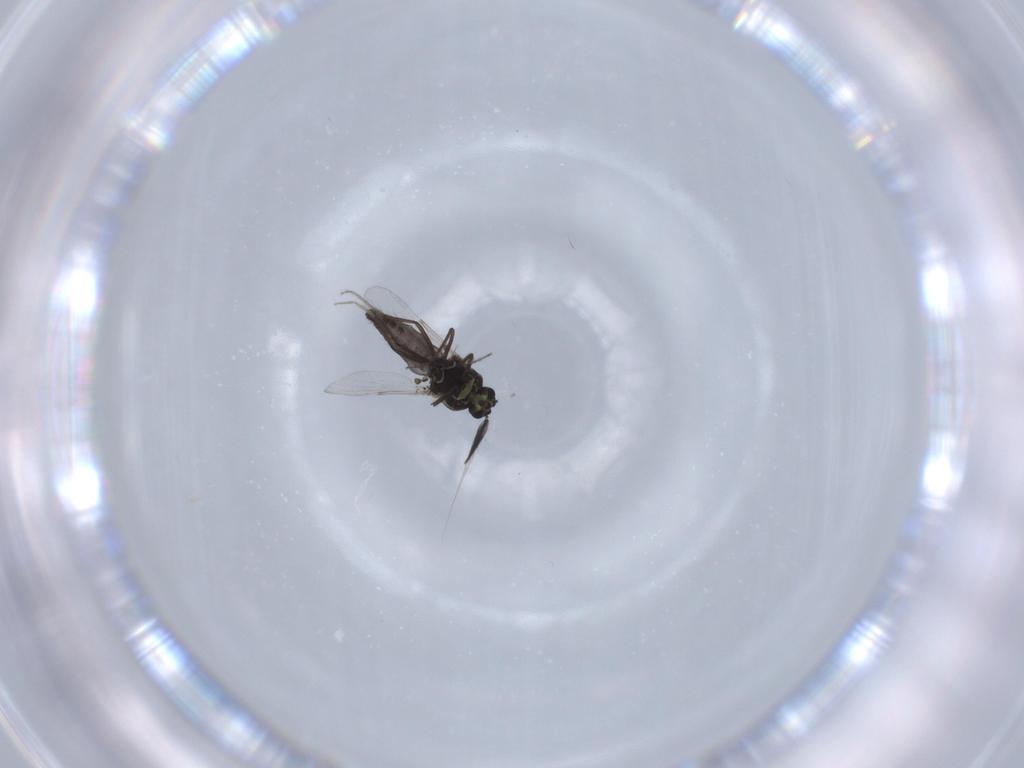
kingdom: Animalia
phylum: Arthropoda
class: Insecta
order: Diptera
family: Ceratopogonidae
